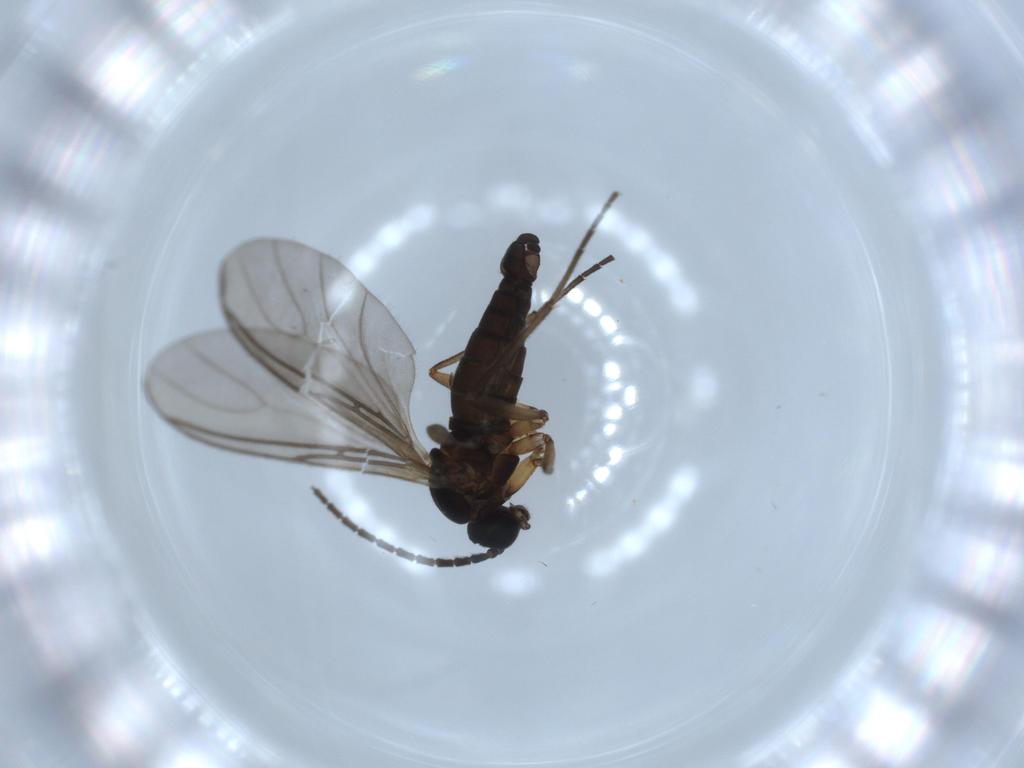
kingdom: Animalia
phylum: Arthropoda
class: Insecta
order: Diptera
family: Sciaridae
